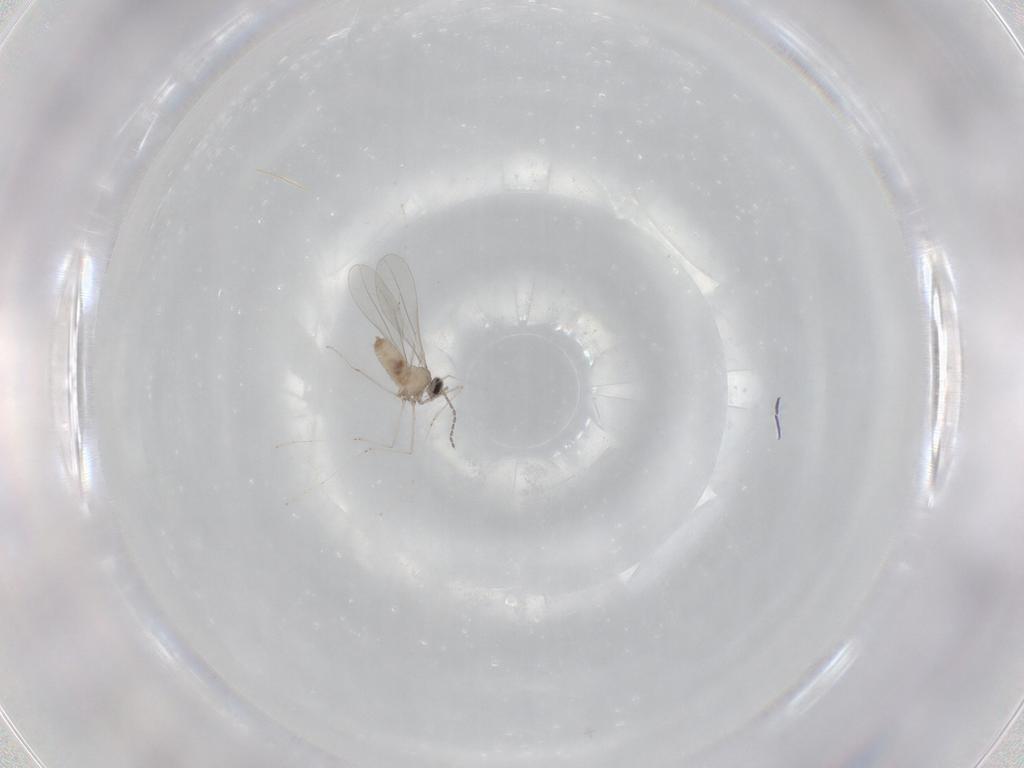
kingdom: Animalia
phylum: Arthropoda
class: Insecta
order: Diptera
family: Cecidomyiidae
